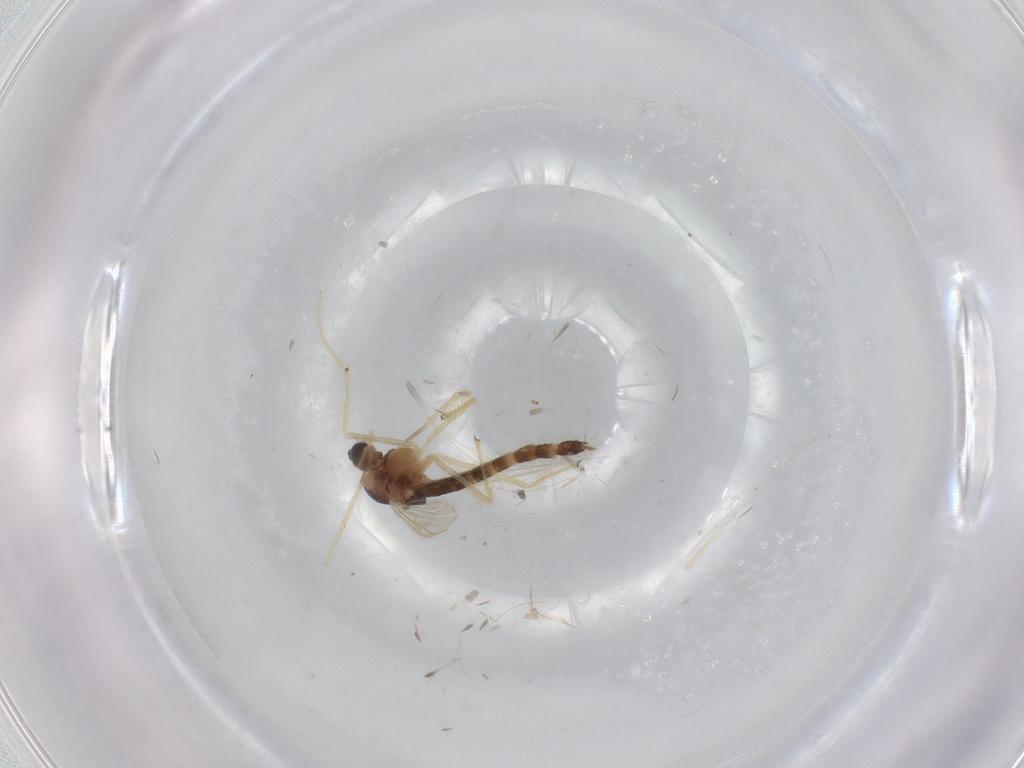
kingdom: Animalia
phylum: Arthropoda
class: Insecta
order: Diptera
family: Chironomidae
